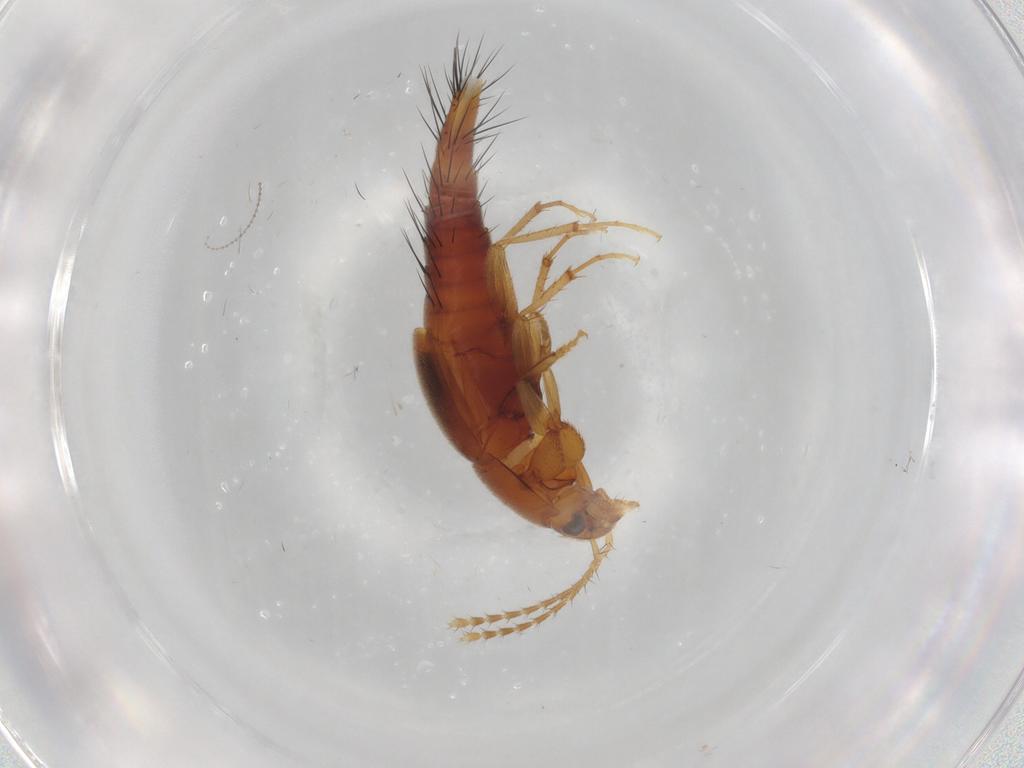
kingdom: Animalia
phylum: Arthropoda
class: Insecta
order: Coleoptera
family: Staphylinidae
